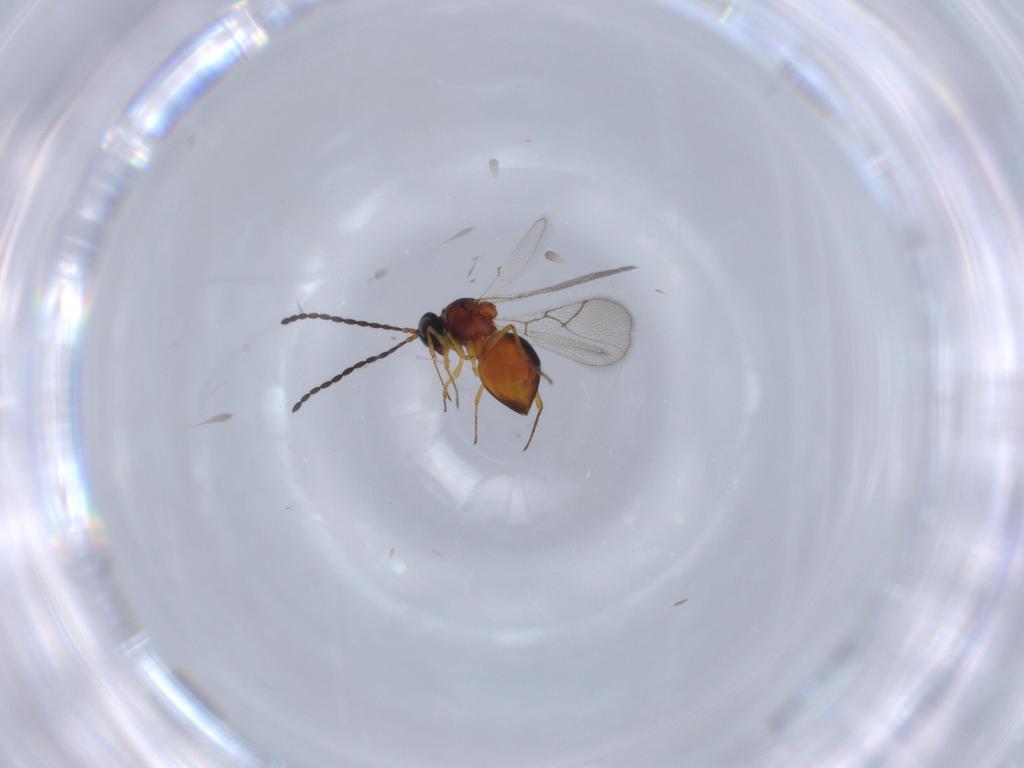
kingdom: Animalia
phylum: Arthropoda
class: Insecta
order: Hymenoptera
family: Figitidae
